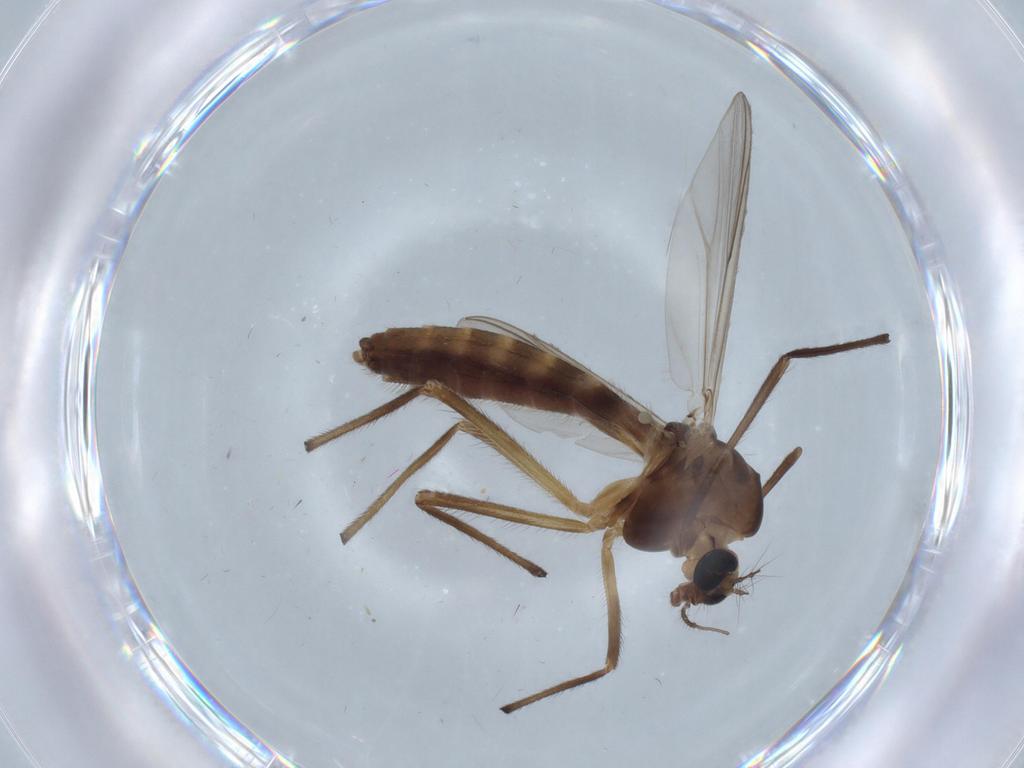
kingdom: Animalia
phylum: Arthropoda
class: Insecta
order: Diptera
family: Chironomidae
